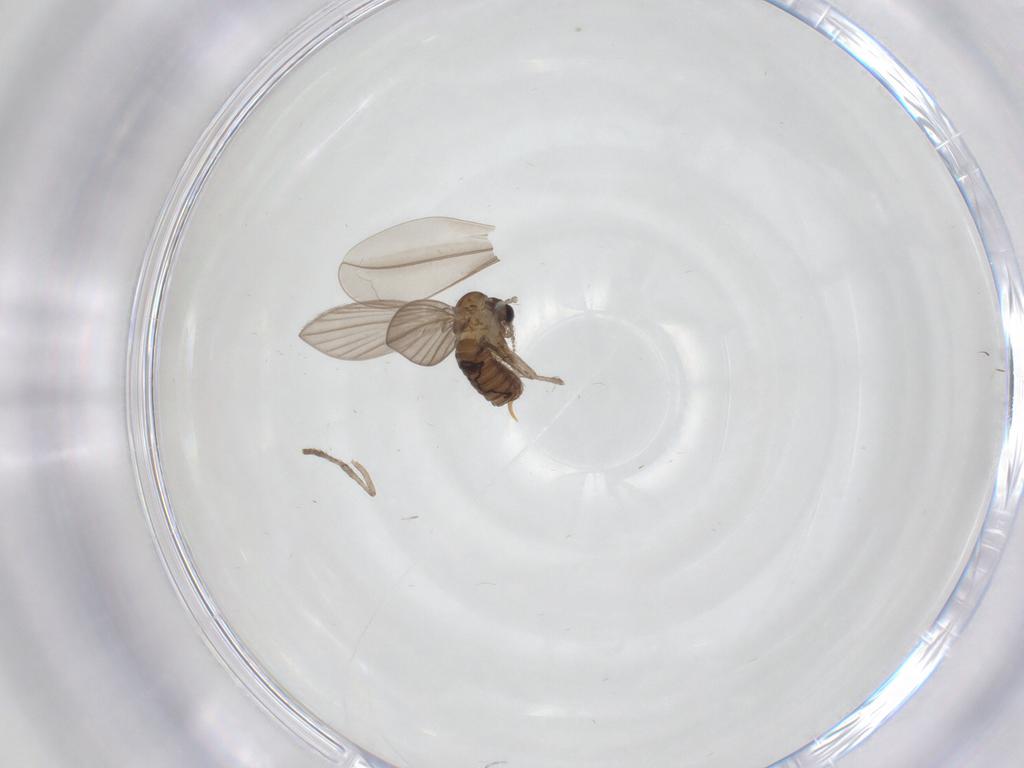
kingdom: Animalia
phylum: Arthropoda
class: Insecta
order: Diptera
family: Psychodidae
